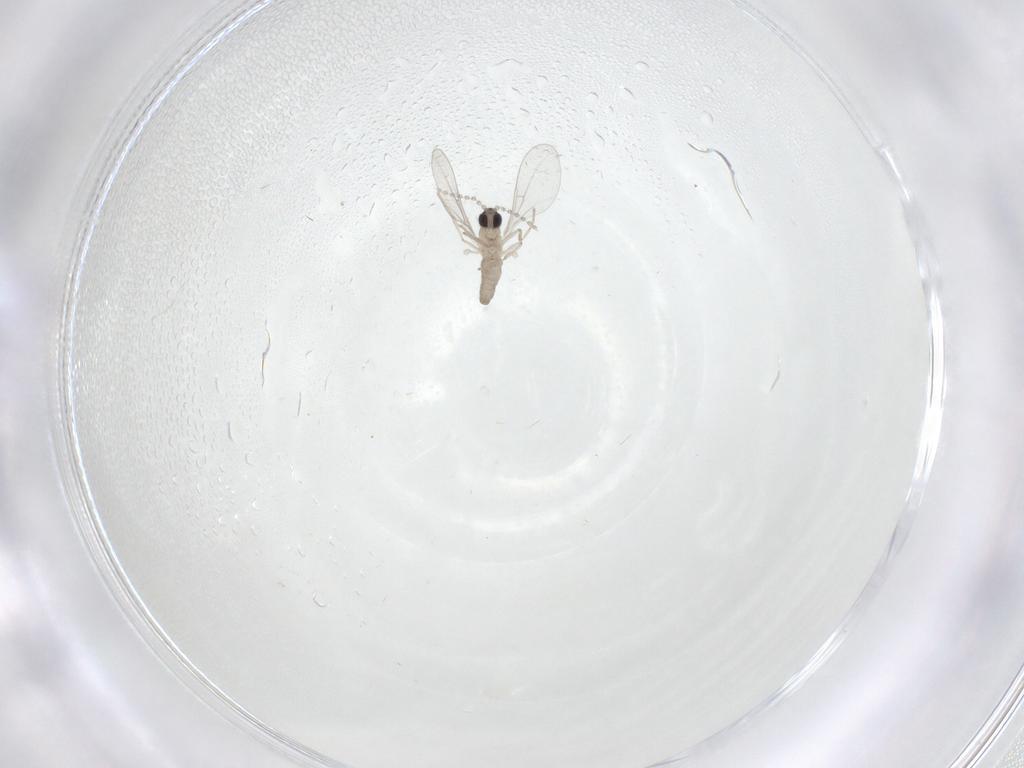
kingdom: Animalia
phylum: Arthropoda
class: Insecta
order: Diptera
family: Cecidomyiidae
